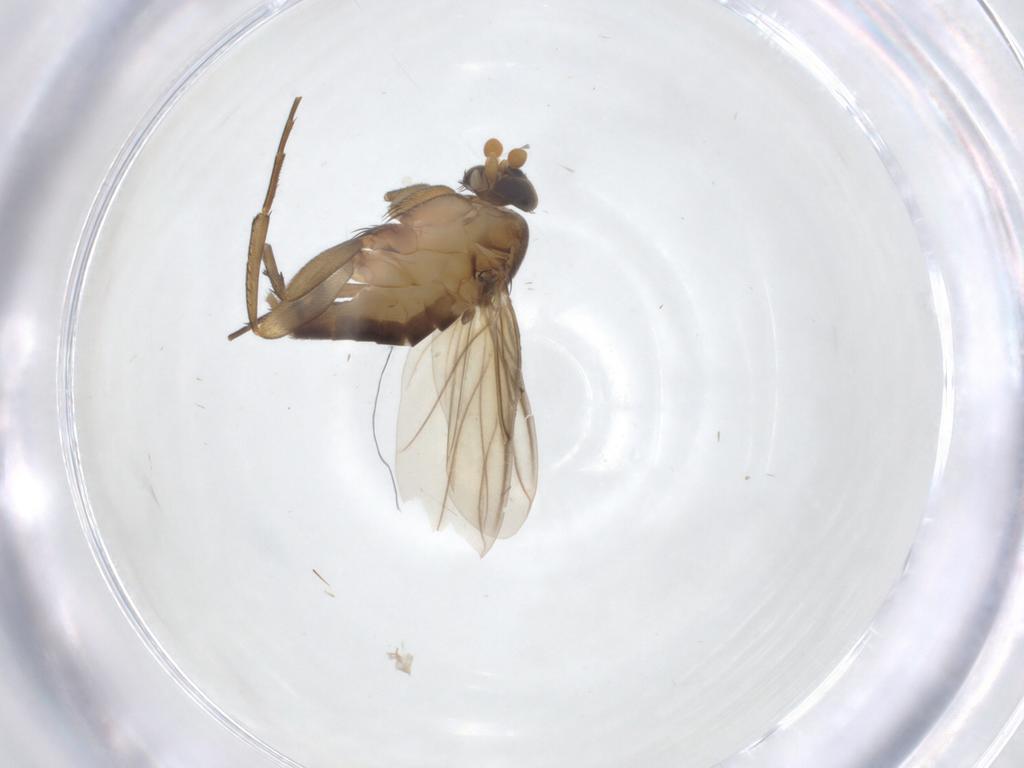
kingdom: Animalia
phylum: Arthropoda
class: Insecta
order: Diptera
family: Phoridae
